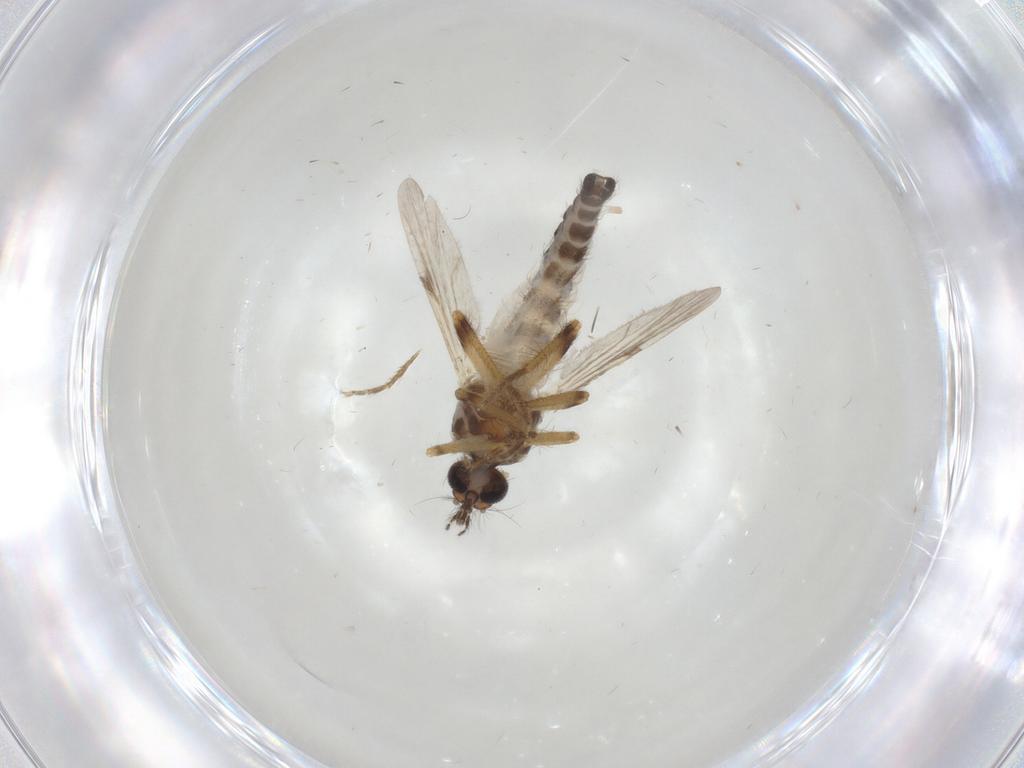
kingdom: Animalia
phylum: Arthropoda
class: Insecta
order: Diptera
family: Ceratopogonidae
